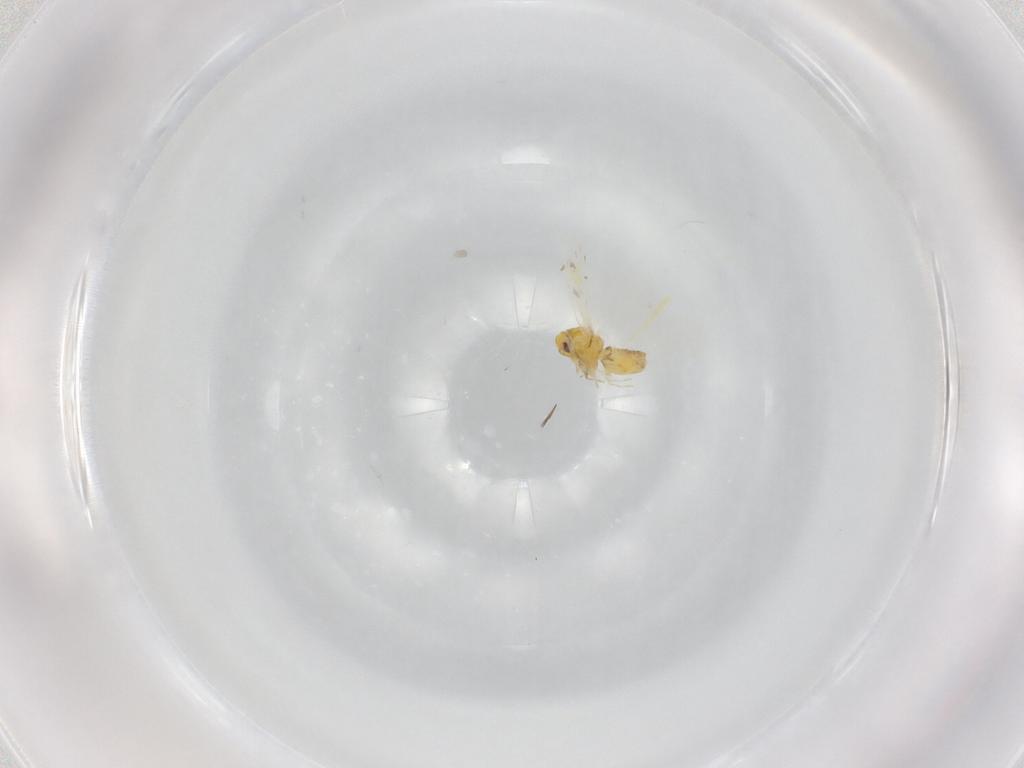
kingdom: Animalia
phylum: Arthropoda
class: Insecta
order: Hemiptera
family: Aleyrodidae
